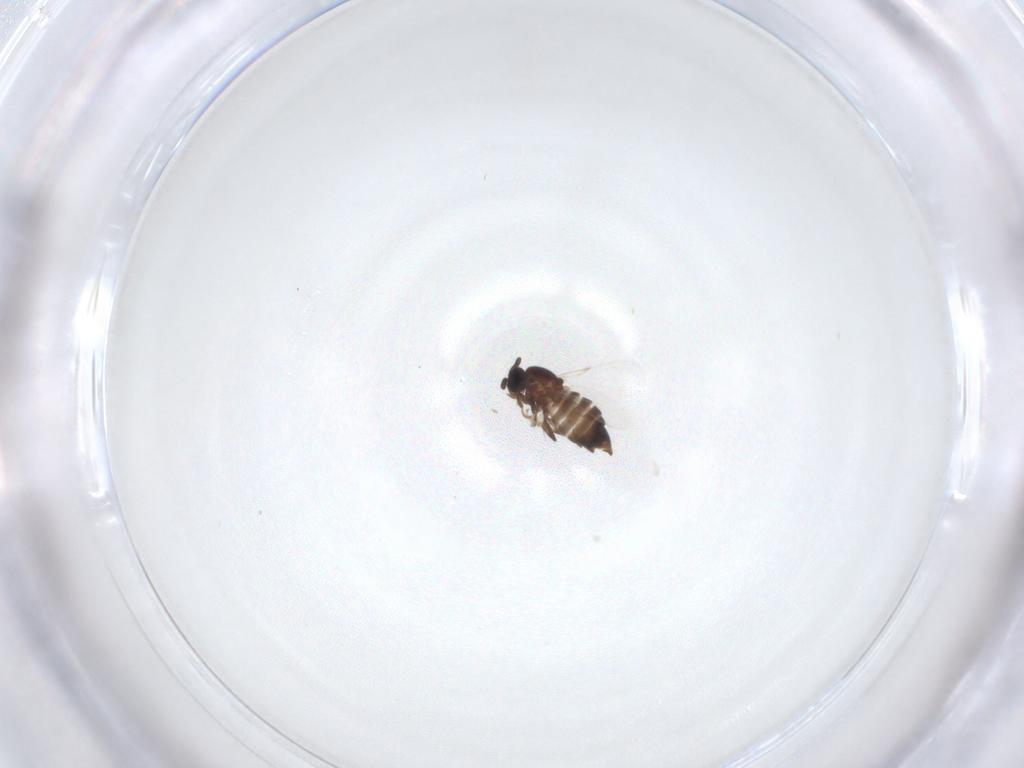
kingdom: Animalia
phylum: Arthropoda
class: Insecta
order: Diptera
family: Scatopsidae
